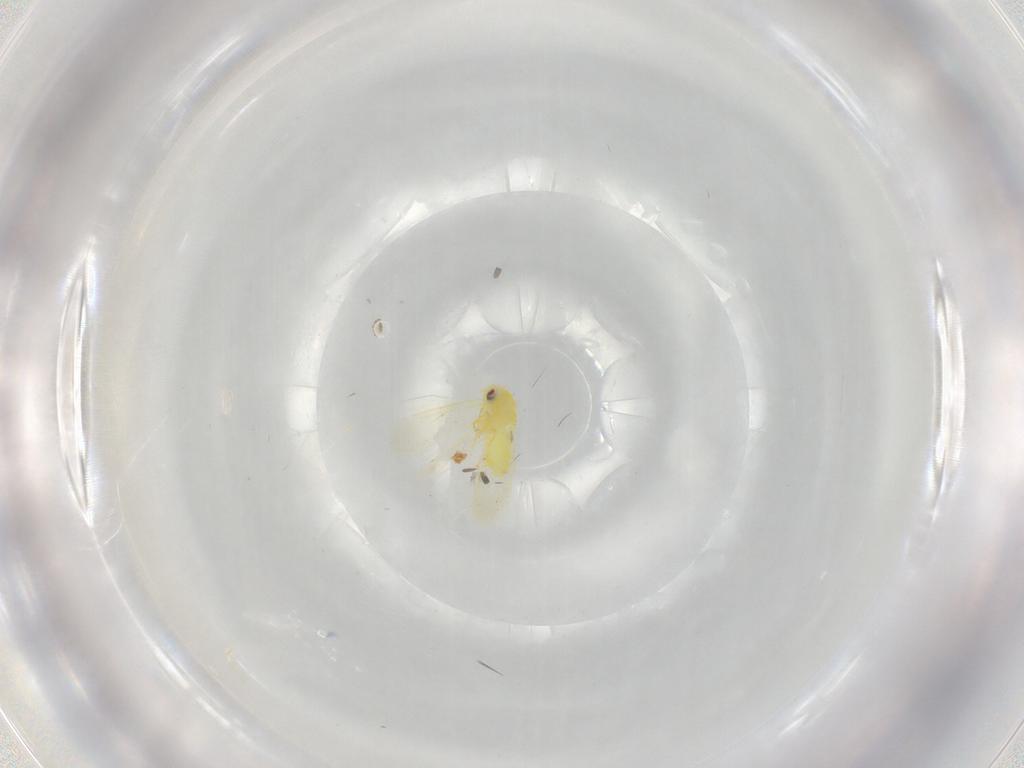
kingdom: Animalia
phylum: Arthropoda
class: Insecta
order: Hemiptera
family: Aleyrodidae
